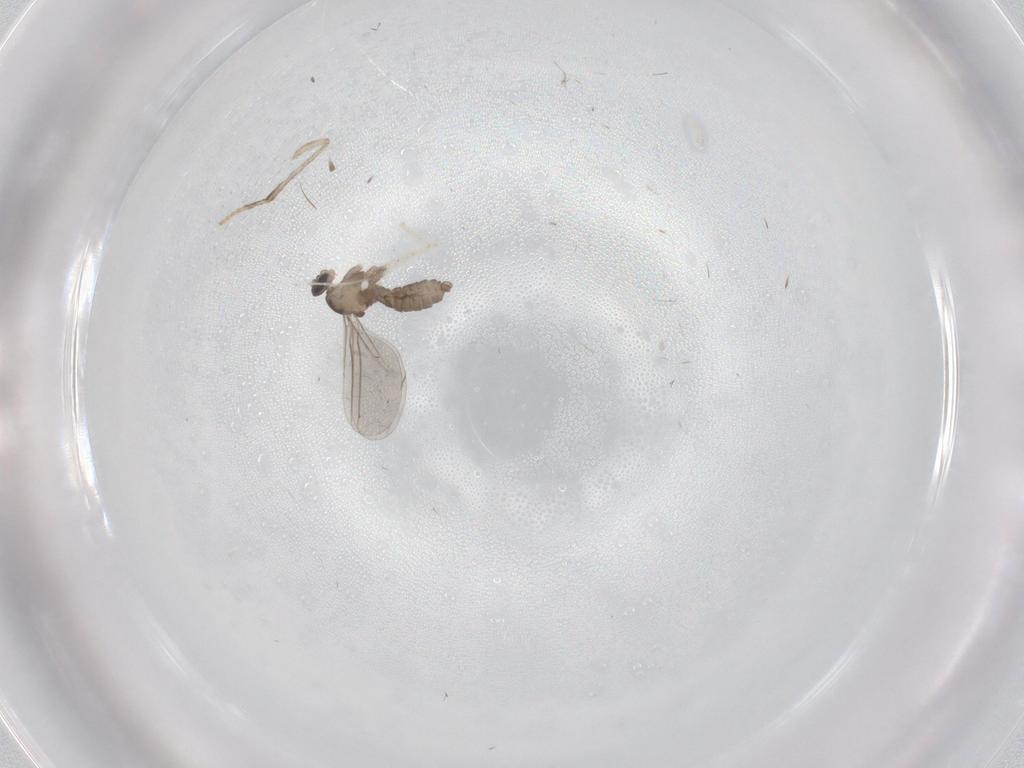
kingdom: Animalia
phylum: Arthropoda
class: Insecta
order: Diptera
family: Cecidomyiidae
